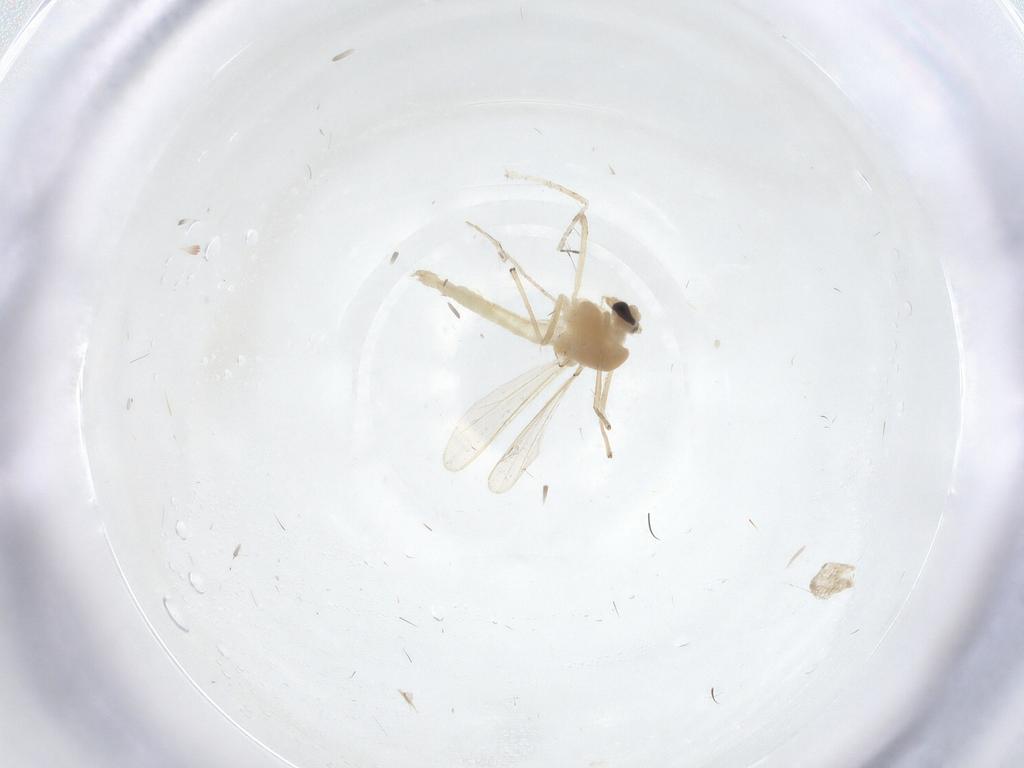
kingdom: Animalia
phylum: Arthropoda
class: Insecta
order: Diptera
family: Chironomidae
